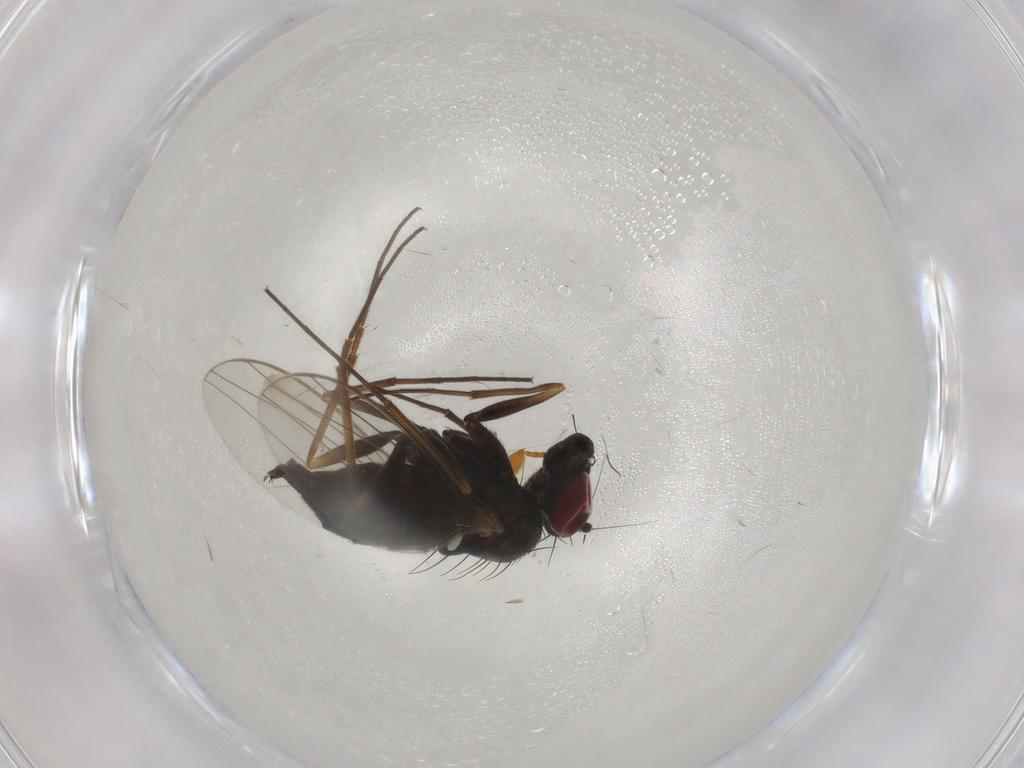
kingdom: Animalia
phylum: Arthropoda
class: Insecta
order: Diptera
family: Dolichopodidae
